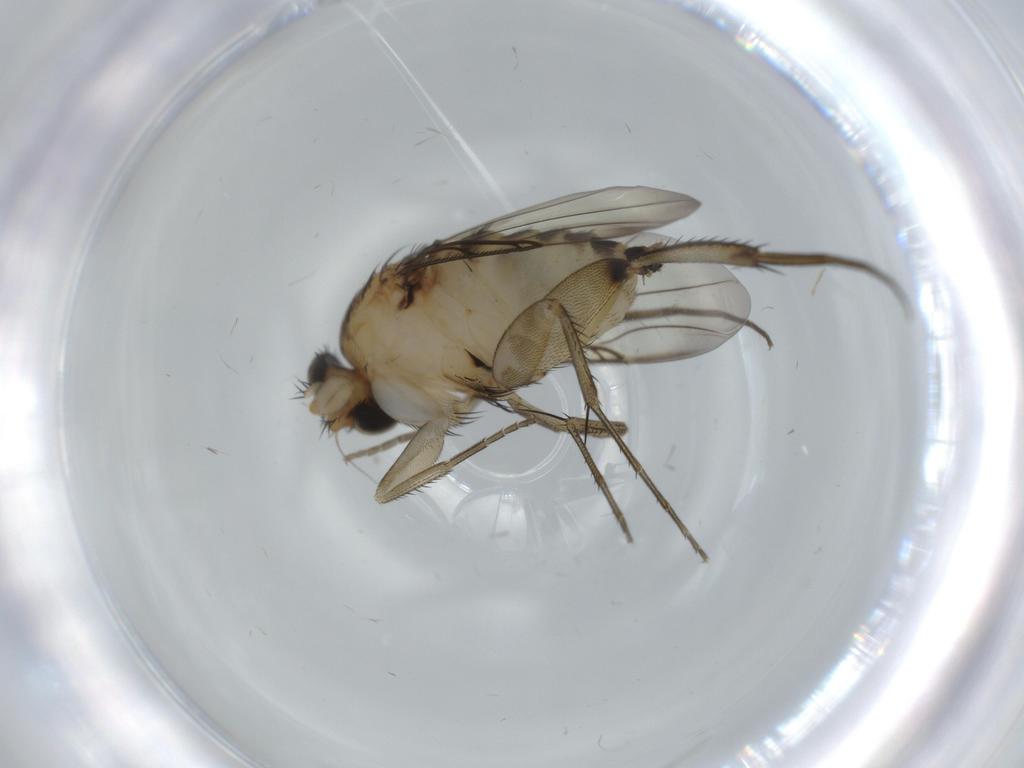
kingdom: Animalia
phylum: Arthropoda
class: Insecta
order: Diptera
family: Phoridae
